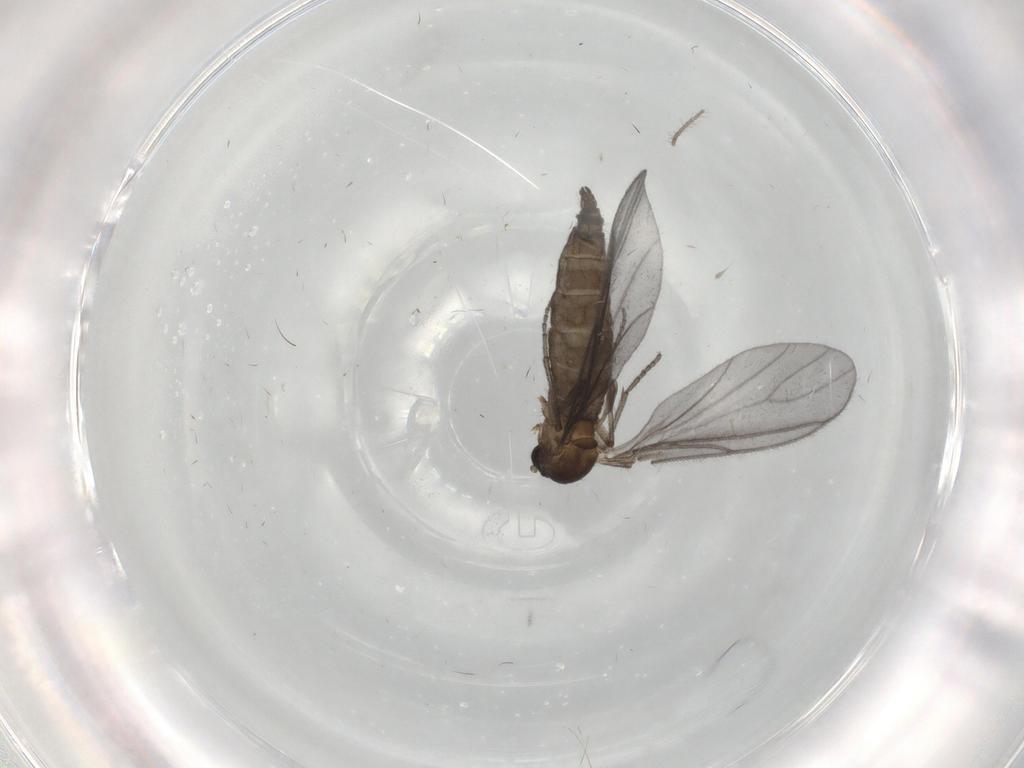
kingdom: Animalia
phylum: Arthropoda
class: Insecta
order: Diptera
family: Sciaridae
